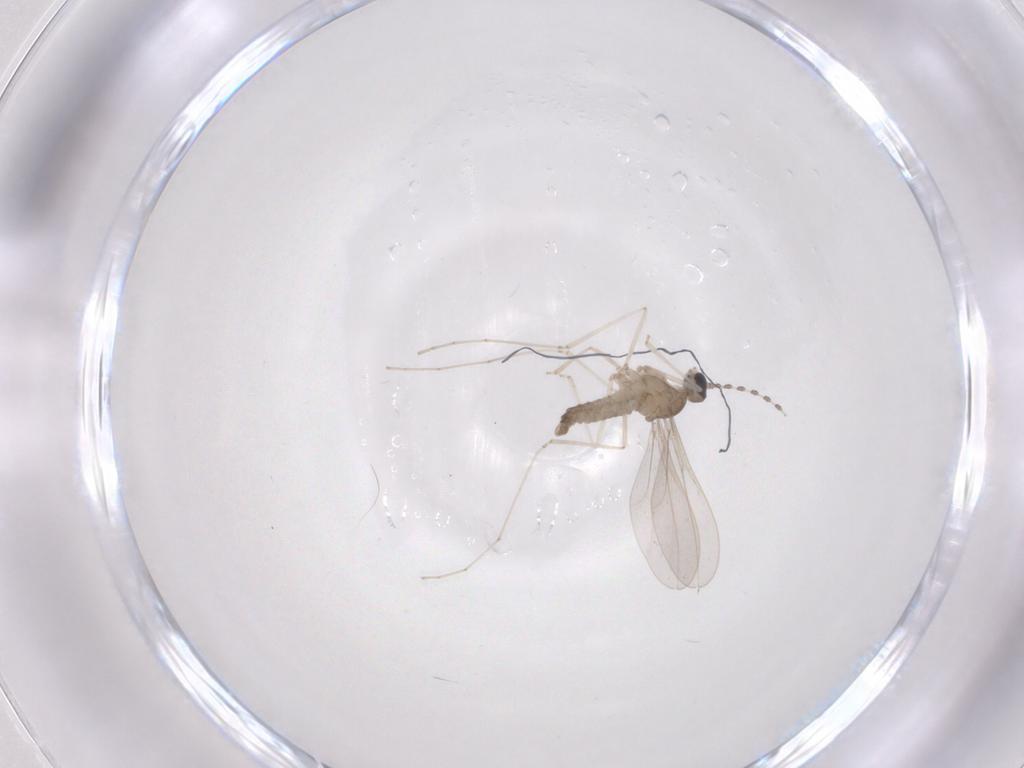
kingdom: Animalia
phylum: Arthropoda
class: Insecta
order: Diptera
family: Cecidomyiidae
